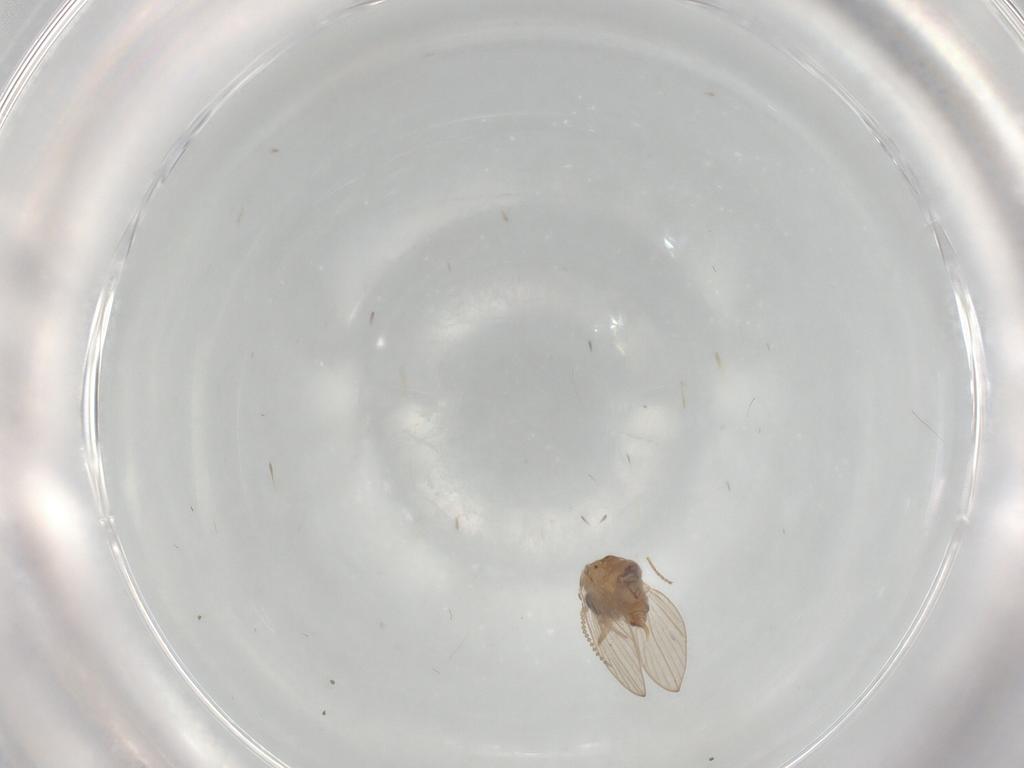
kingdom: Animalia
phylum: Arthropoda
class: Insecta
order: Diptera
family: Psychodidae
